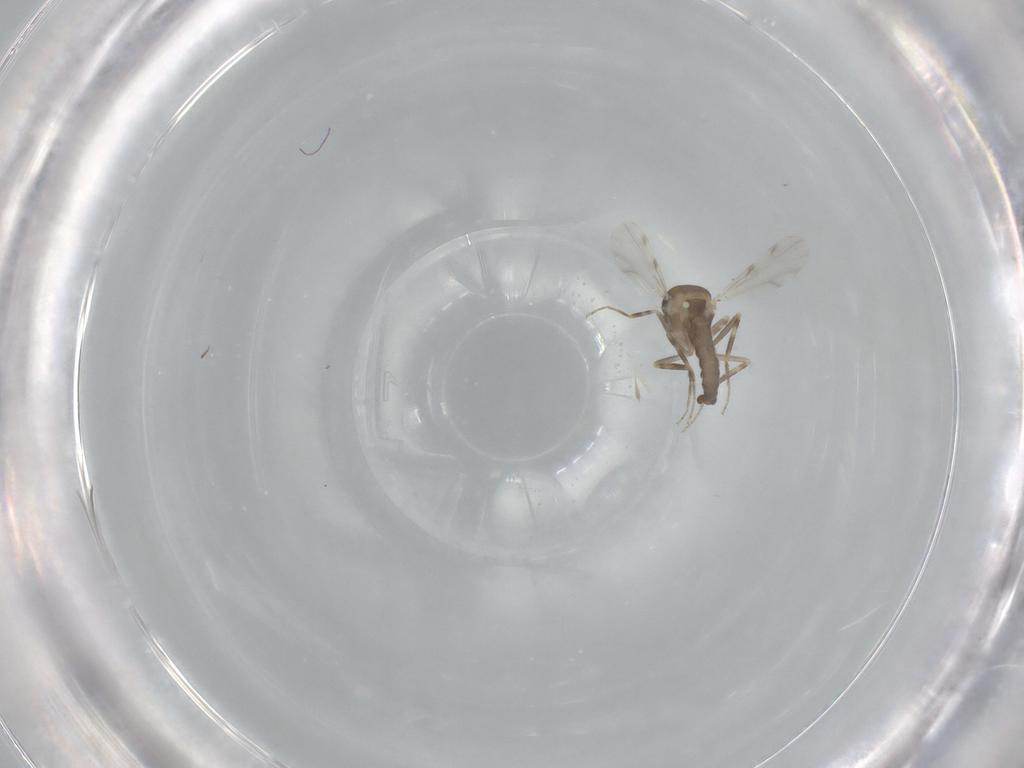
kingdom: Animalia
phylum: Arthropoda
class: Insecta
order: Diptera
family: Ceratopogonidae
